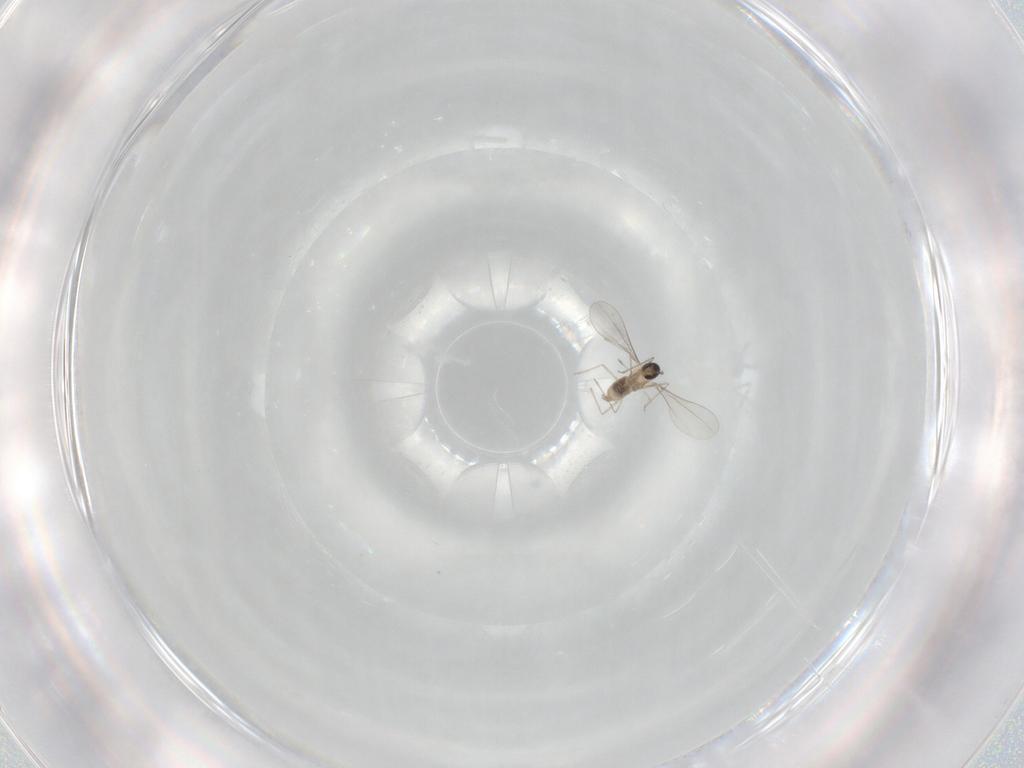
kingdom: Animalia
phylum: Arthropoda
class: Insecta
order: Diptera
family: Cecidomyiidae
